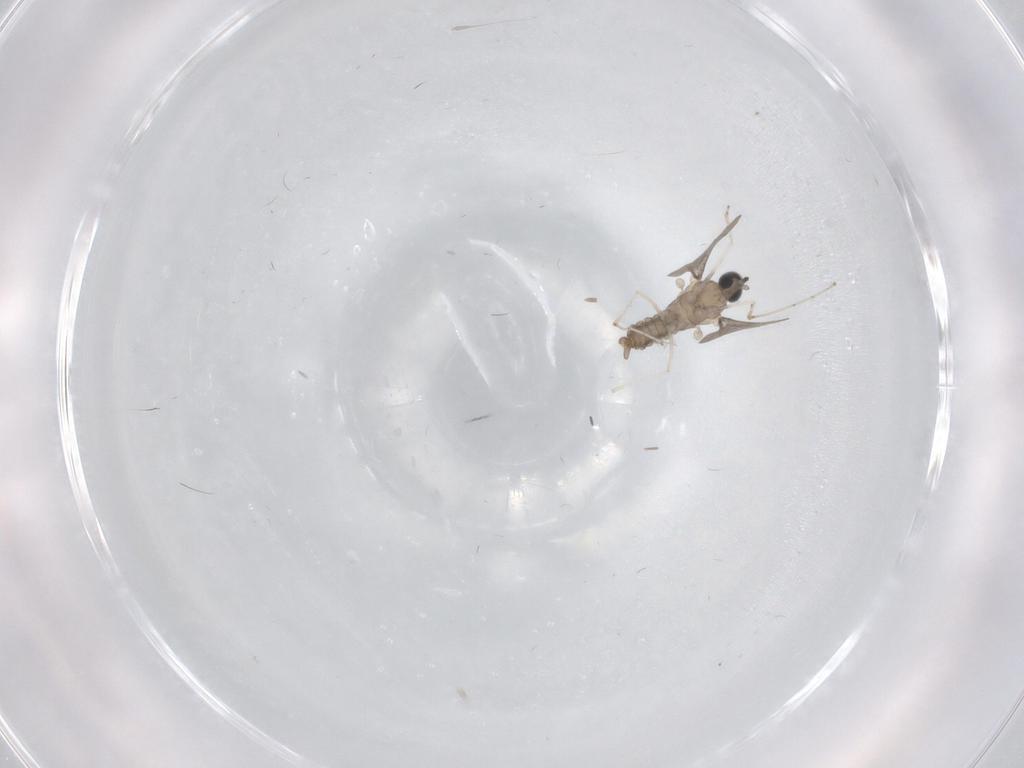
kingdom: Animalia
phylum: Arthropoda
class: Insecta
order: Diptera
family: Cecidomyiidae
